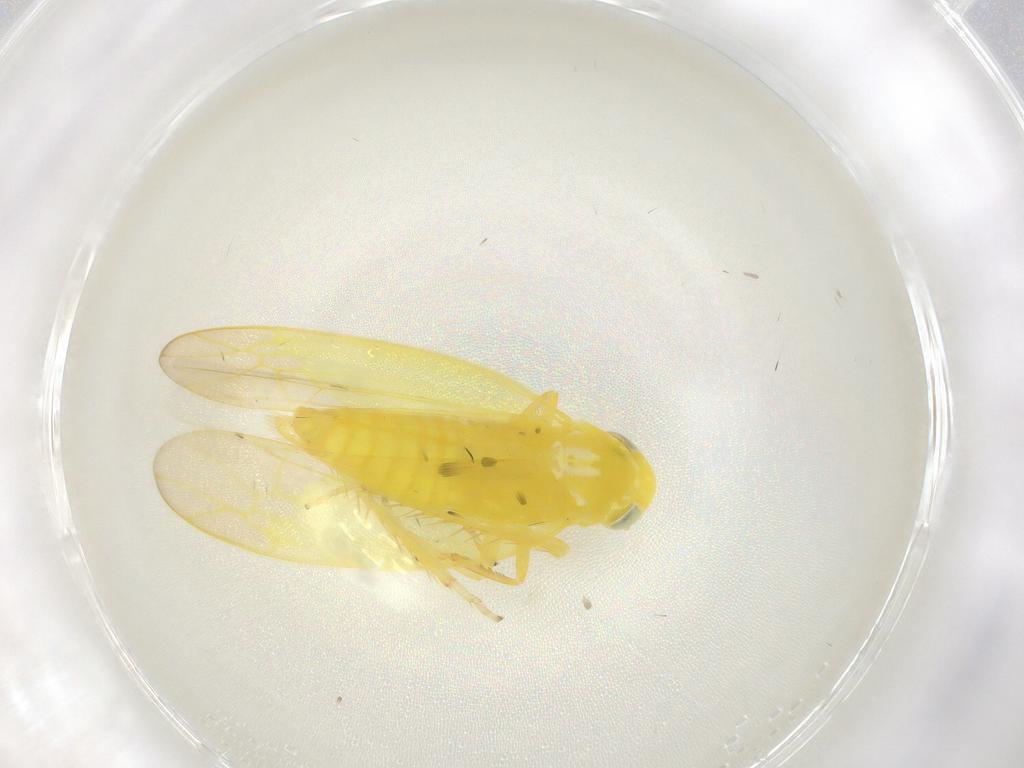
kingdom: Animalia
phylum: Arthropoda
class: Insecta
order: Hemiptera
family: Cicadellidae
